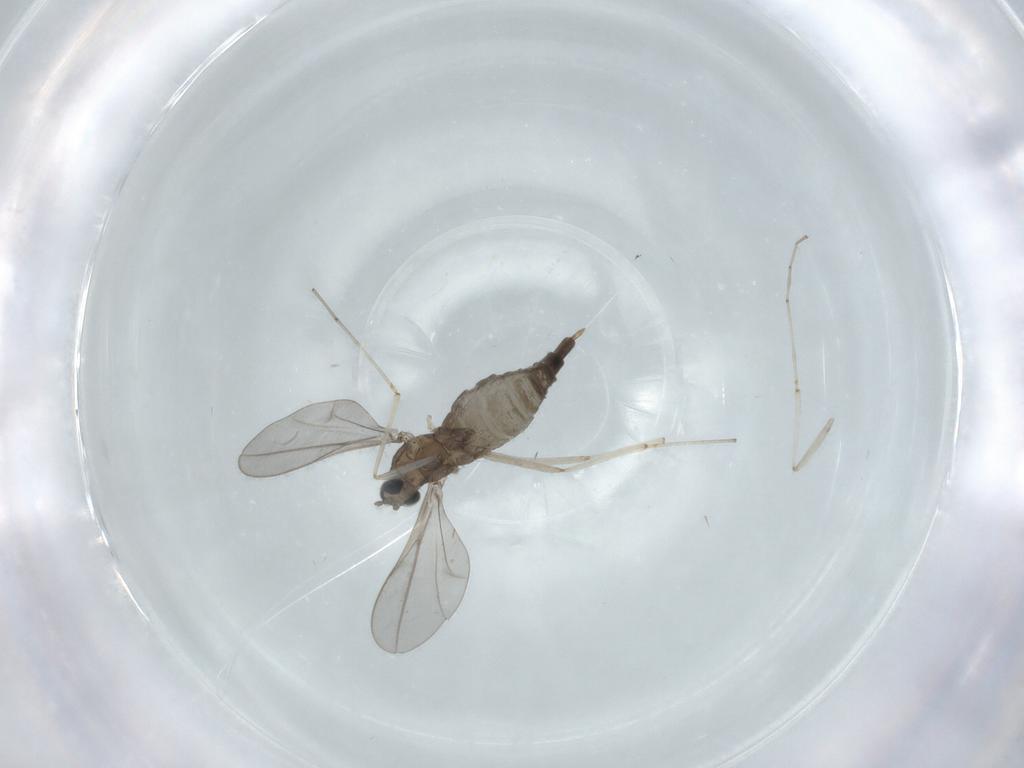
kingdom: Animalia
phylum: Arthropoda
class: Insecta
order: Diptera
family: Cecidomyiidae
